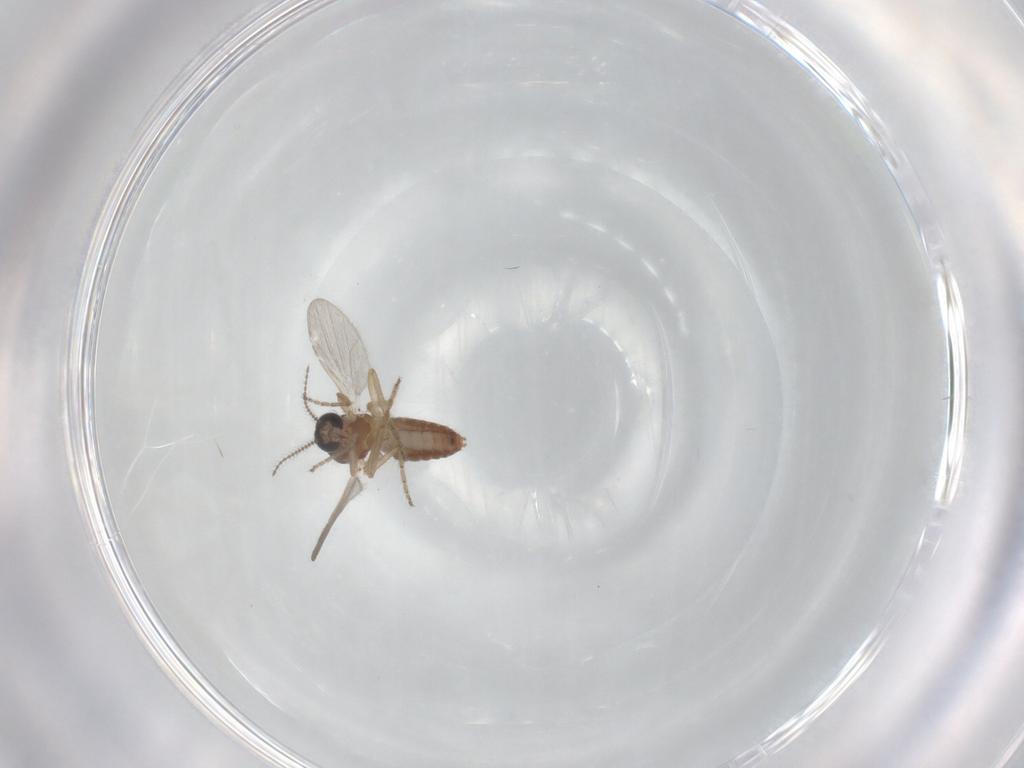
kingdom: Animalia
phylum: Arthropoda
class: Insecta
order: Diptera
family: Ceratopogonidae
